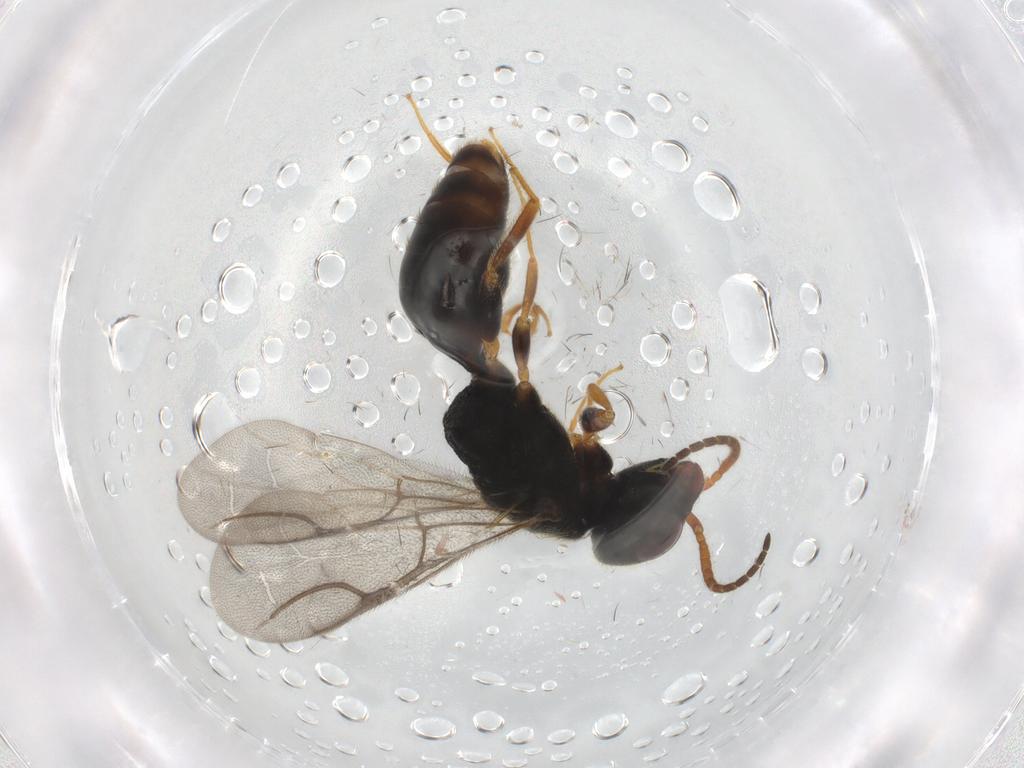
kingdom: Animalia
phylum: Arthropoda
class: Insecta
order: Hymenoptera
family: Bethylidae
